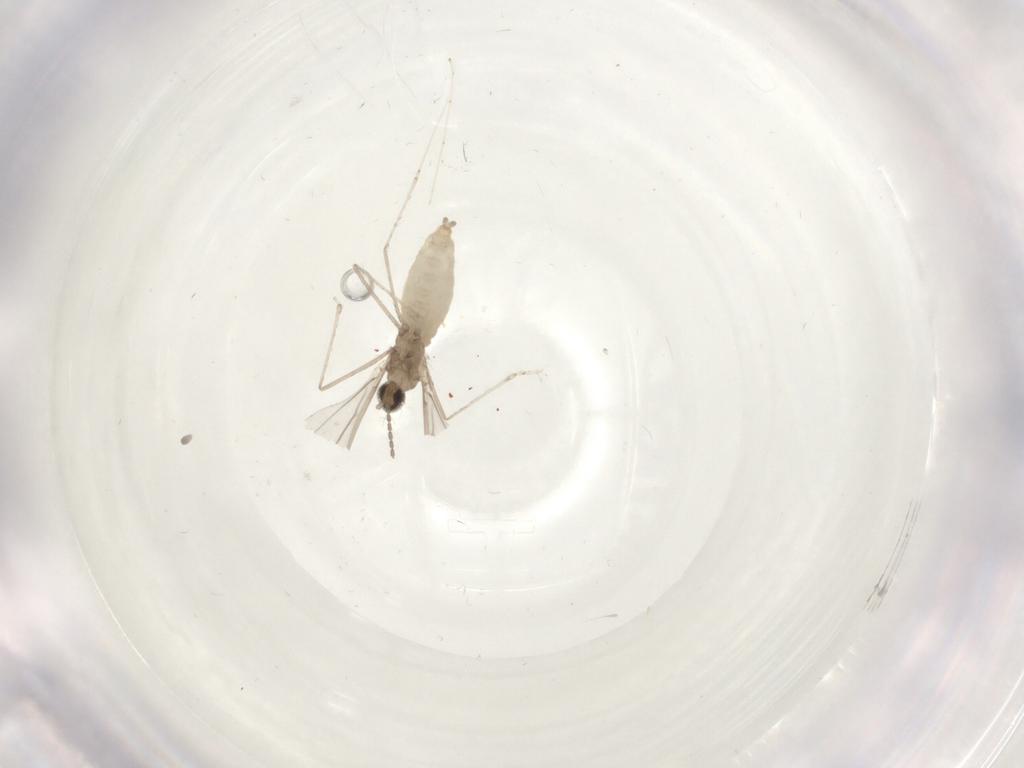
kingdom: Animalia
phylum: Arthropoda
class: Insecta
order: Diptera
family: Cecidomyiidae
